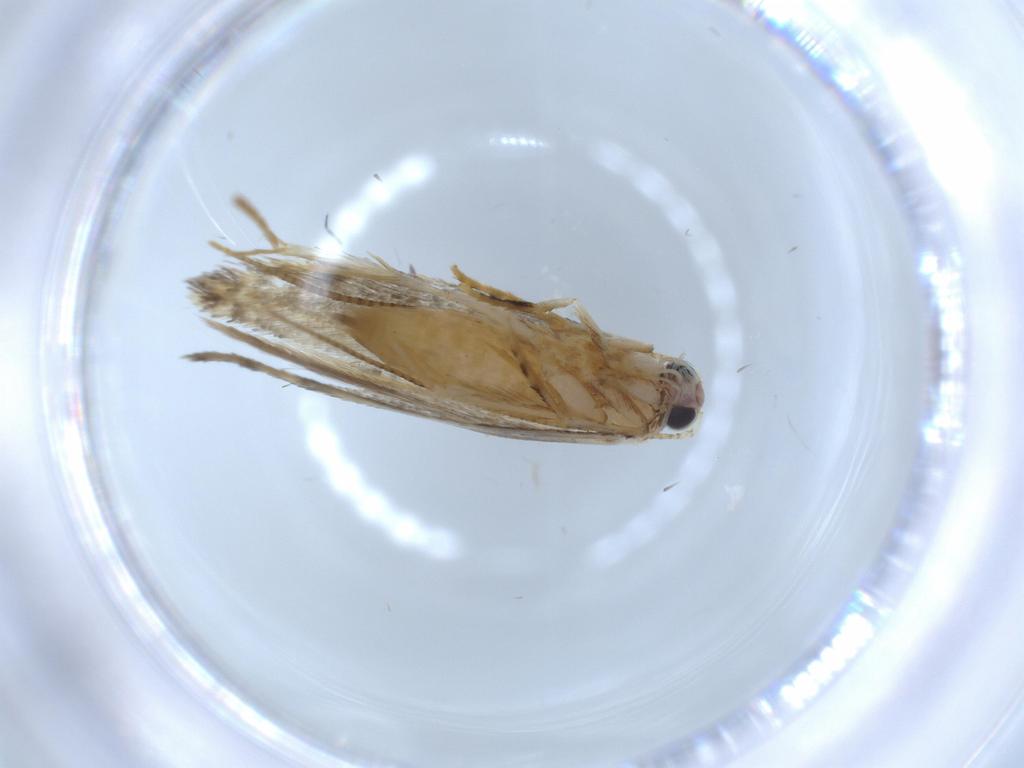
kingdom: Animalia
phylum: Arthropoda
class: Insecta
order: Lepidoptera
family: Tineidae
